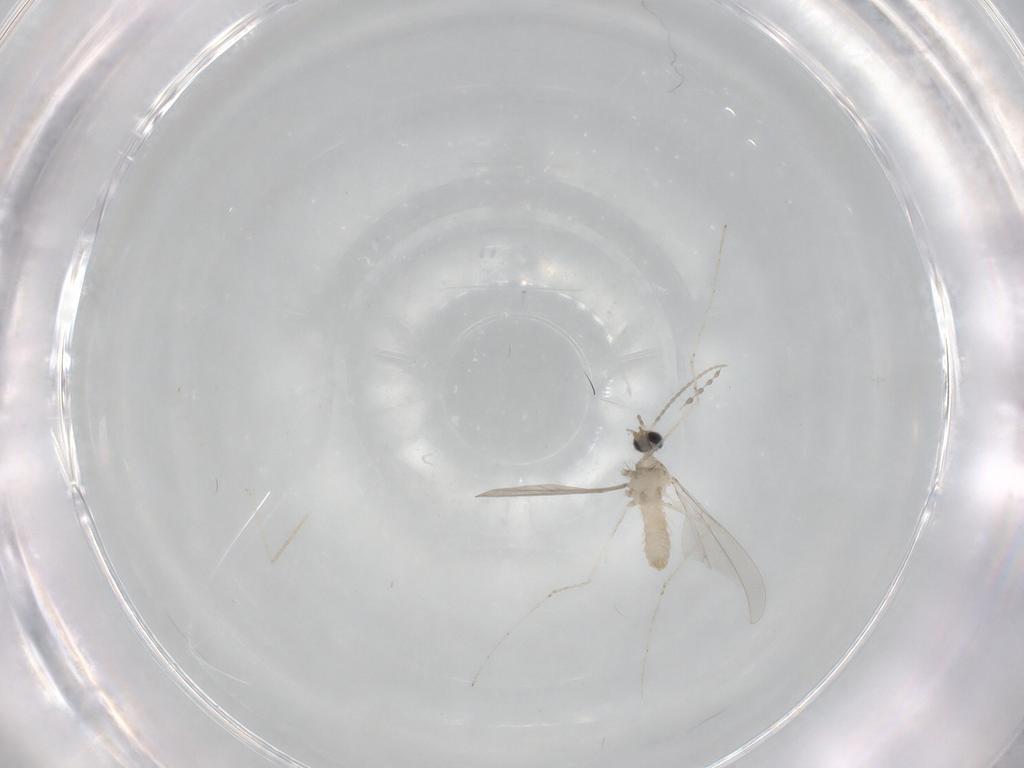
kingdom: Animalia
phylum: Arthropoda
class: Insecta
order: Diptera
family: Cecidomyiidae
